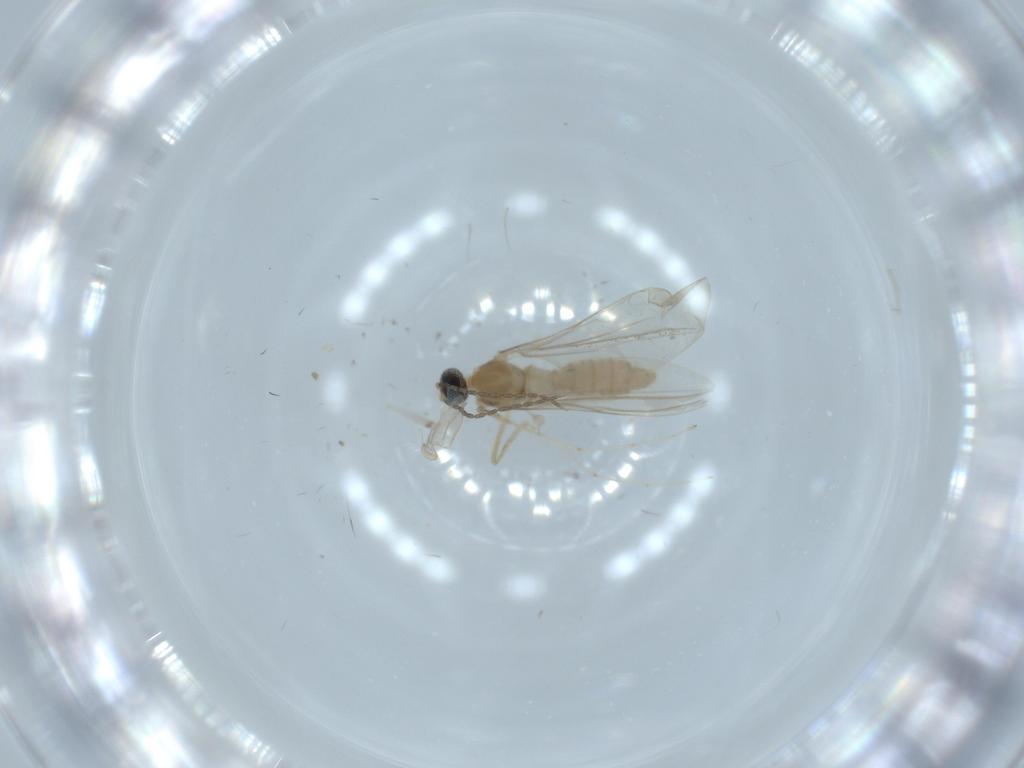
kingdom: Animalia
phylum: Arthropoda
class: Insecta
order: Diptera
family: Cecidomyiidae
